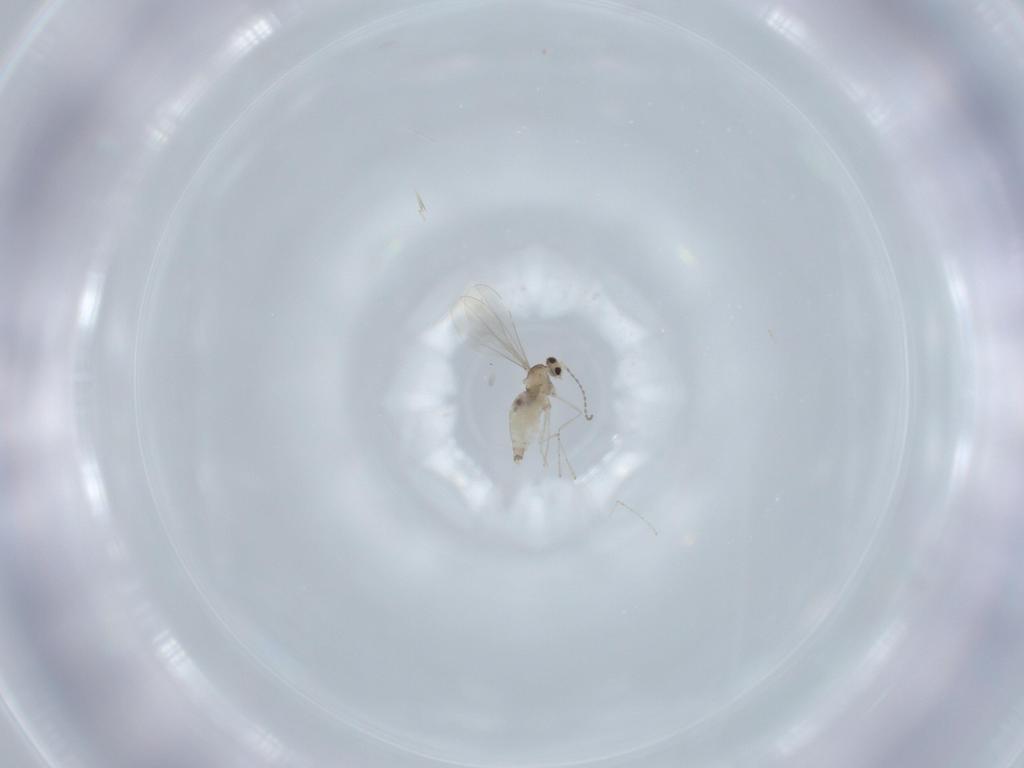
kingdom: Animalia
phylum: Arthropoda
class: Insecta
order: Diptera
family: Cecidomyiidae
